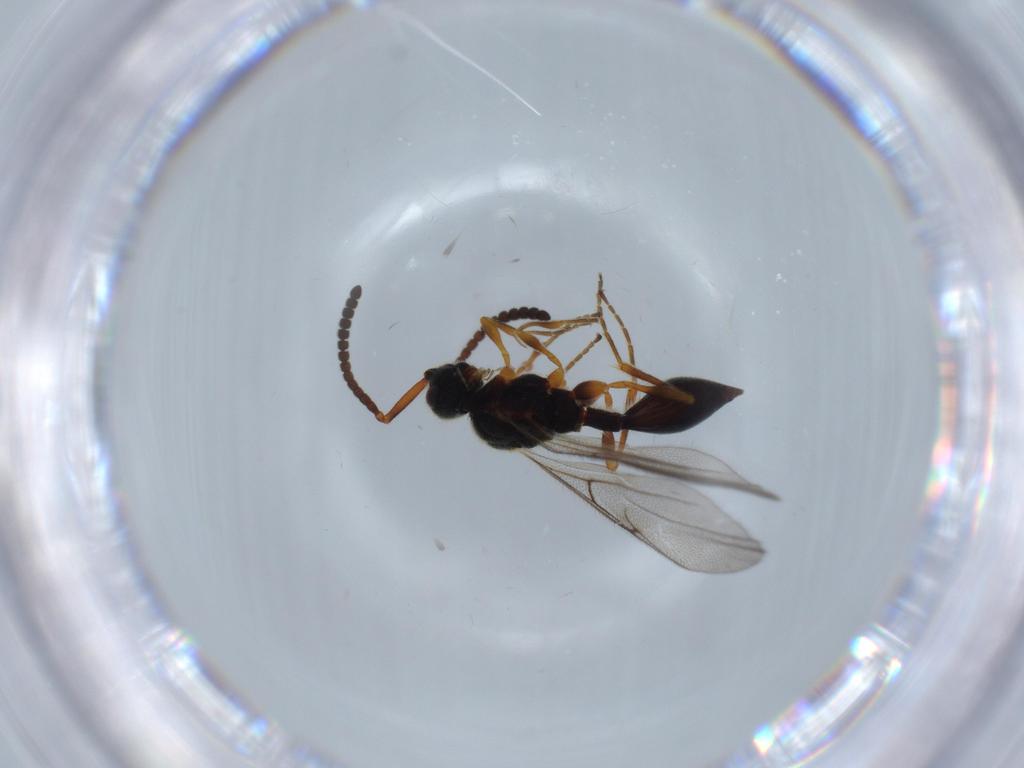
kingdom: Animalia
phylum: Arthropoda
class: Insecta
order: Hymenoptera
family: Diapriidae
